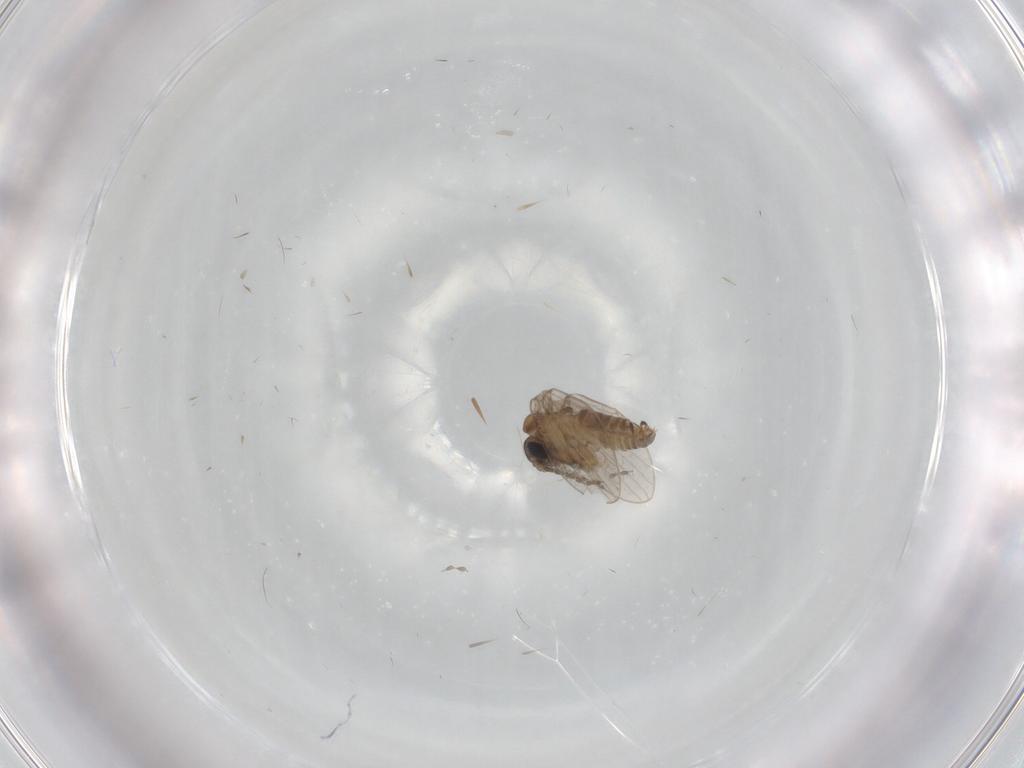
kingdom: Animalia
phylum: Arthropoda
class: Insecta
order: Diptera
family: Psychodidae
